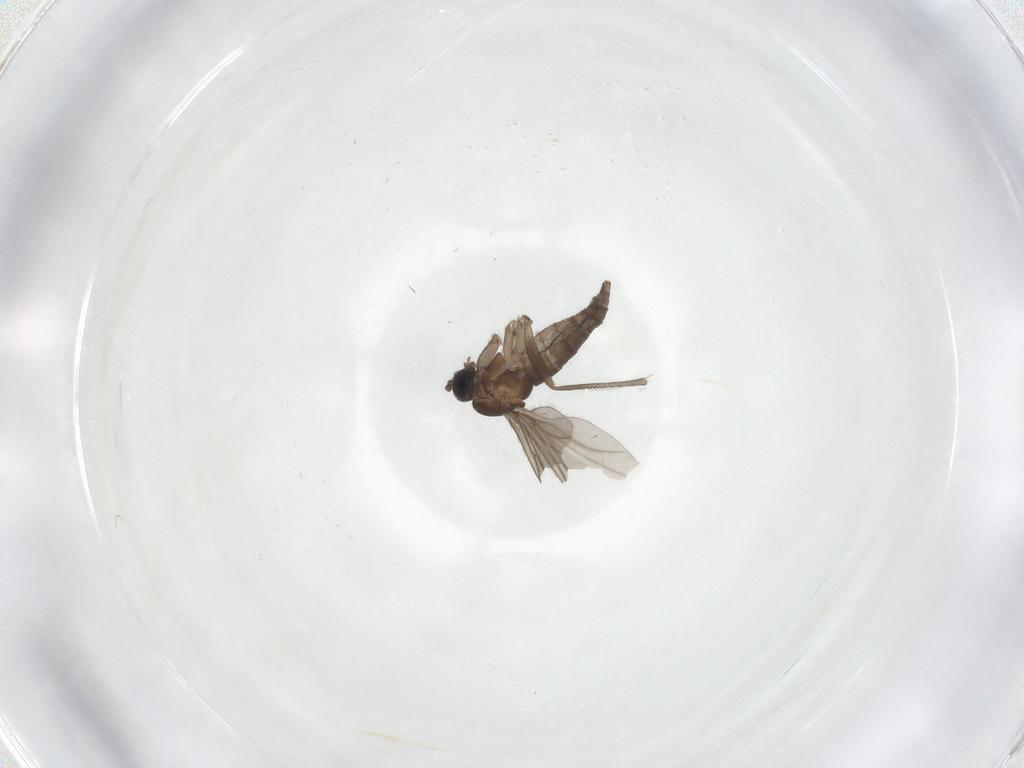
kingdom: Animalia
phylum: Arthropoda
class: Insecta
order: Diptera
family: Sciaridae
